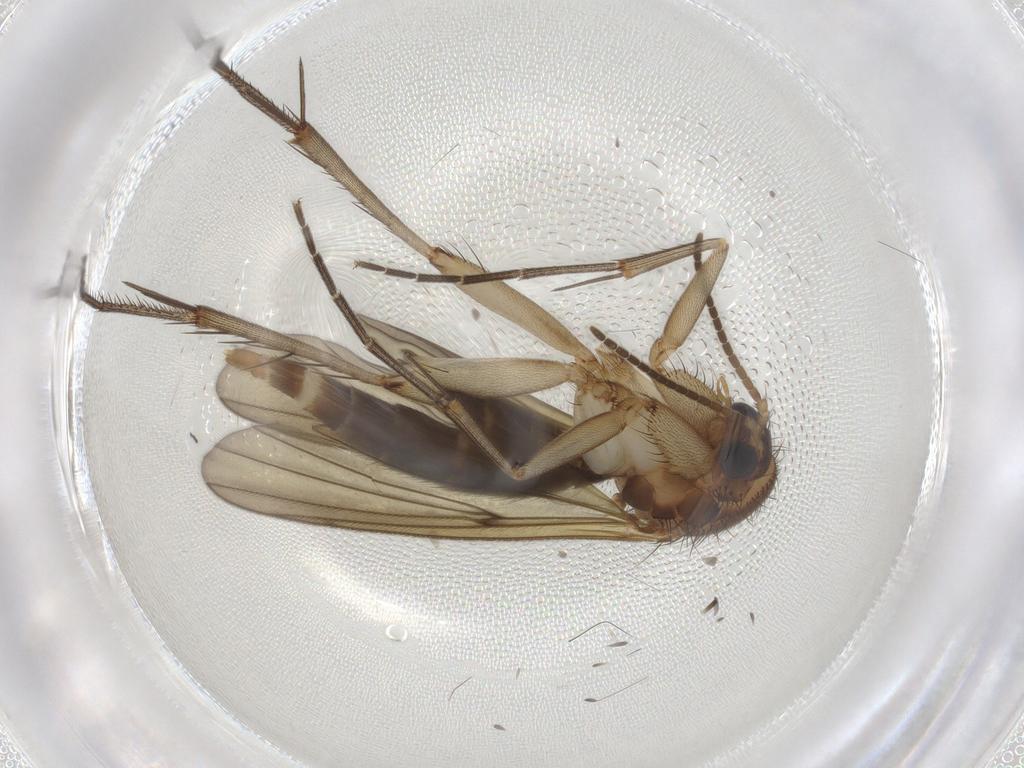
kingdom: Animalia
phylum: Arthropoda
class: Insecta
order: Diptera
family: Mycetophilidae
